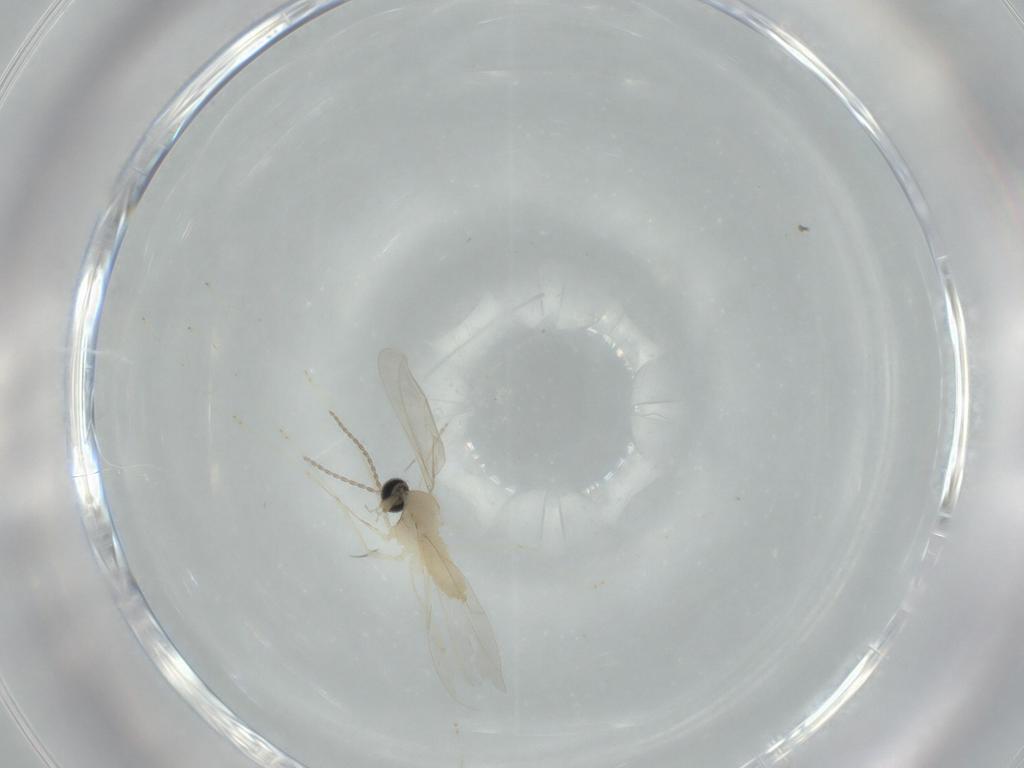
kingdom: Animalia
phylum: Arthropoda
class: Insecta
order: Diptera
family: Cecidomyiidae
